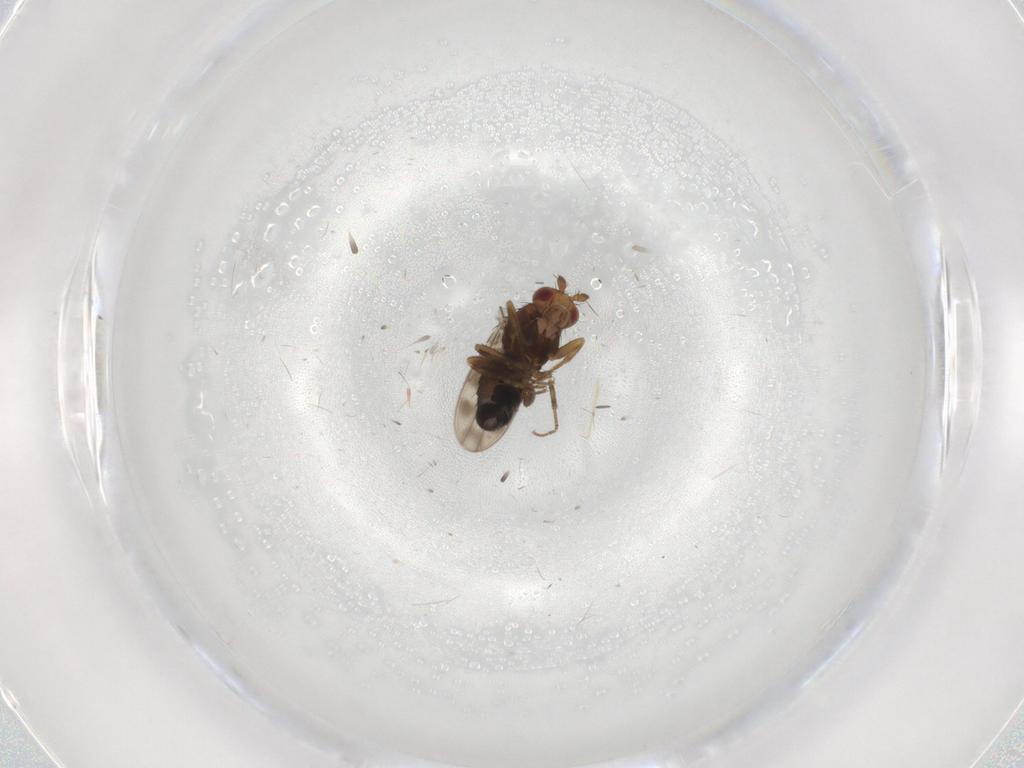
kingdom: Animalia
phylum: Arthropoda
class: Insecta
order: Diptera
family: Sphaeroceridae
